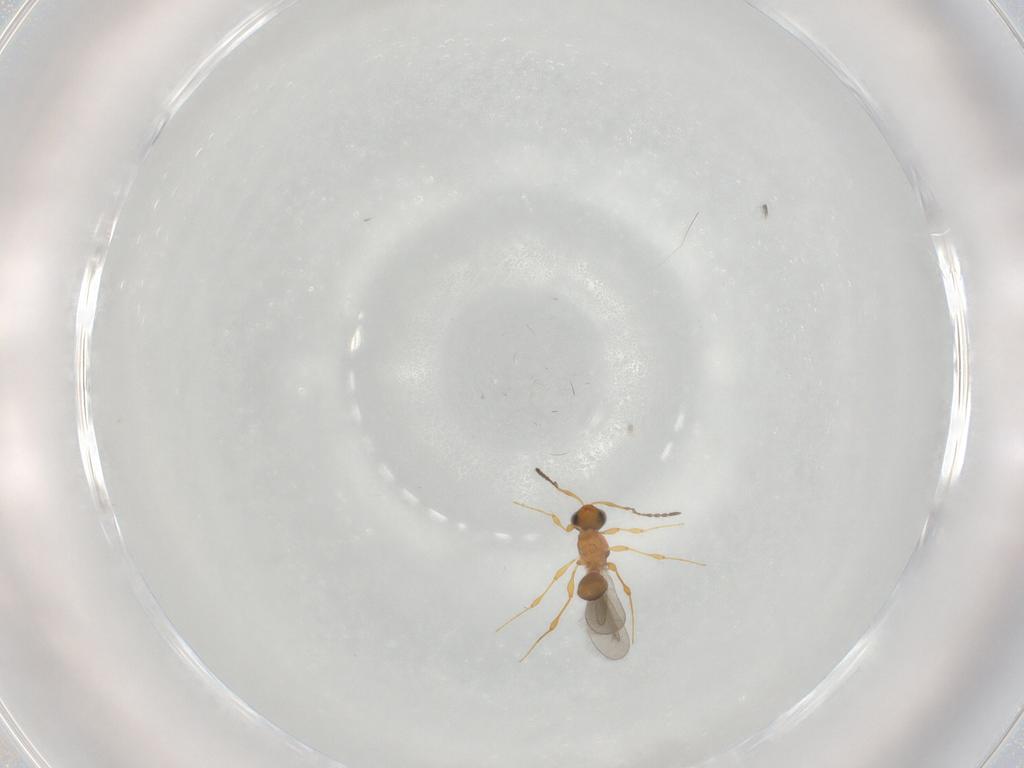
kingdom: Animalia
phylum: Arthropoda
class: Insecta
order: Hymenoptera
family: Platygastridae
